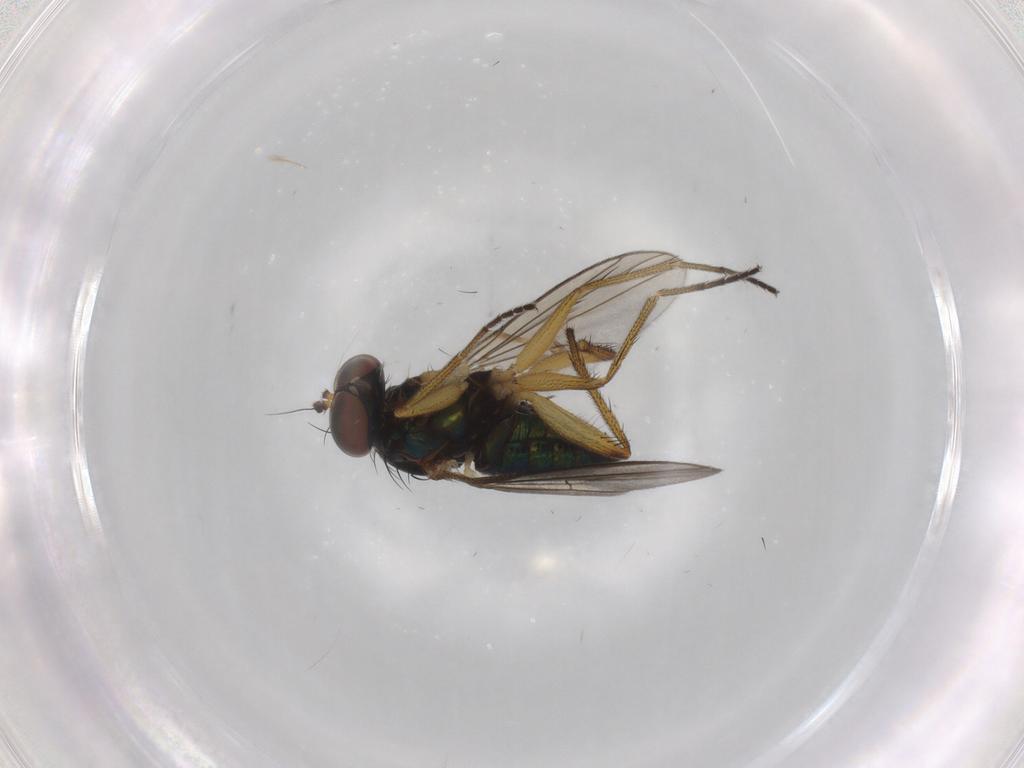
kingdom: Animalia
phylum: Arthropoda
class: Insecta
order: Diptera
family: Dolichopodidae
